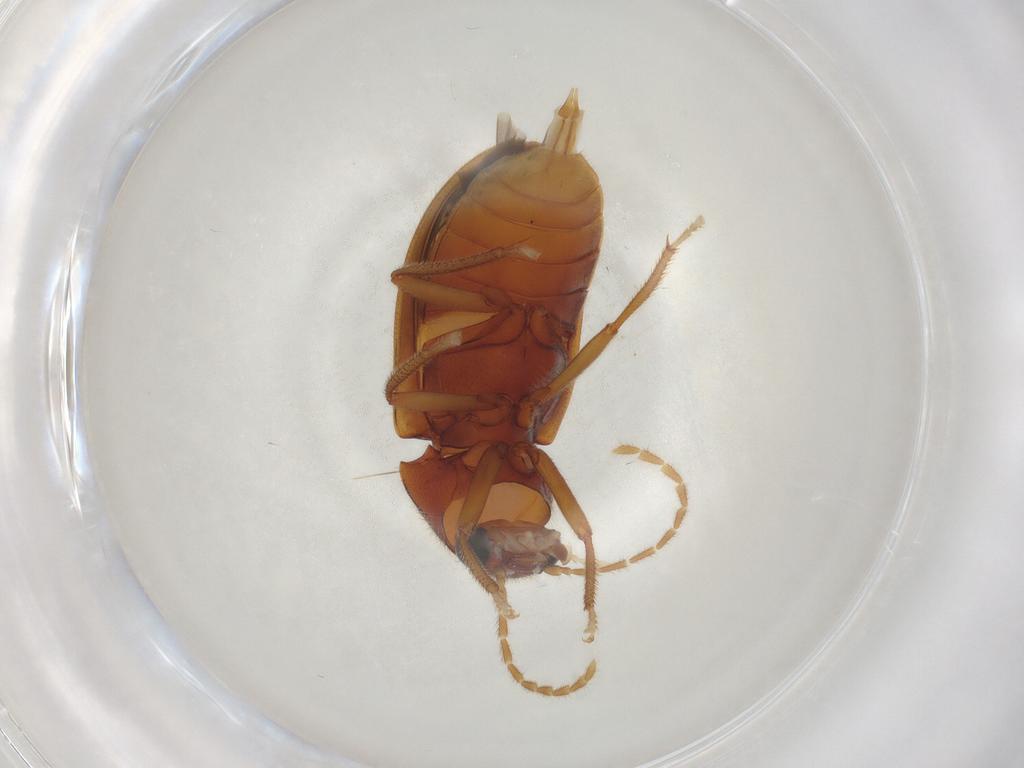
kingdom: Animalia
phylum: Arthropoda
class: Insecta
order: Coleoptera
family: Ptilodactylidae
